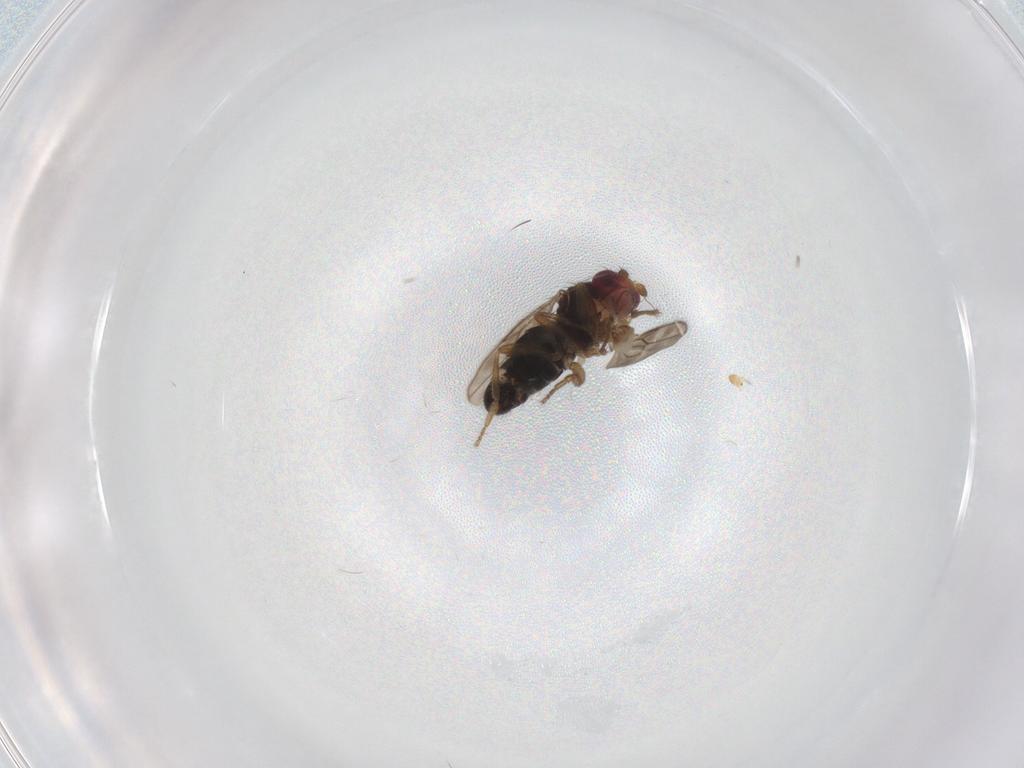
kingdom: Animalia
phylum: Arthropoda
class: Insecta
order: Diptera
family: Sphaeroceridae
